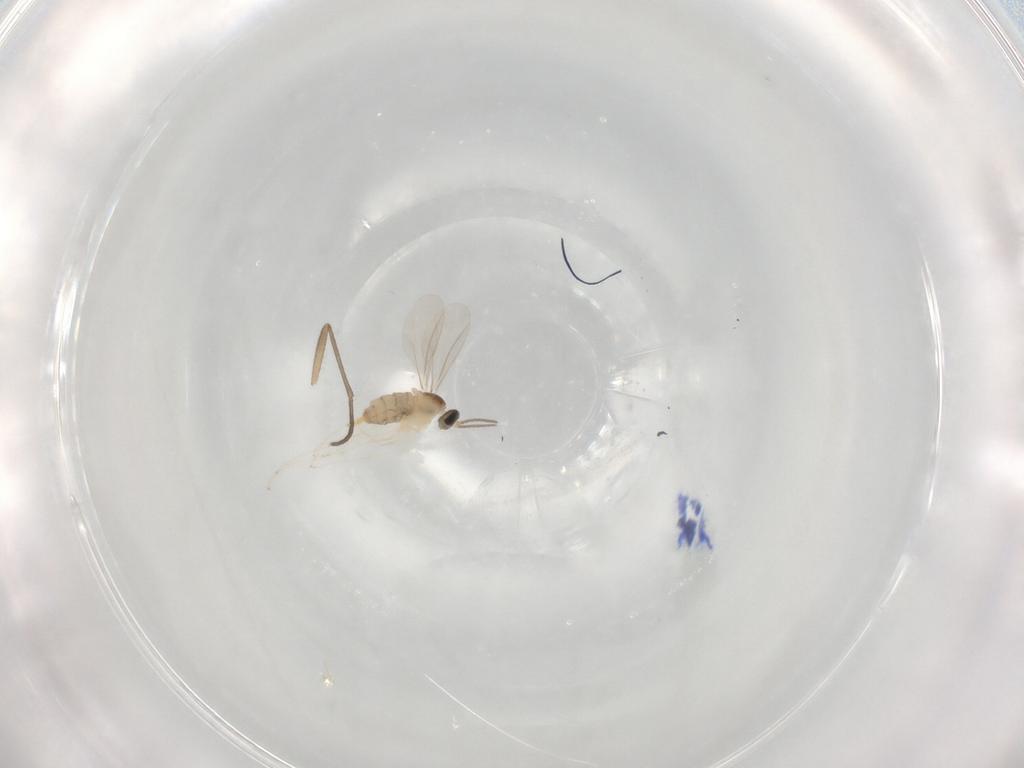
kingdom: Animalia
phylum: Arthropoda
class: Insecta
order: Diptera
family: Cecidomyiidae
